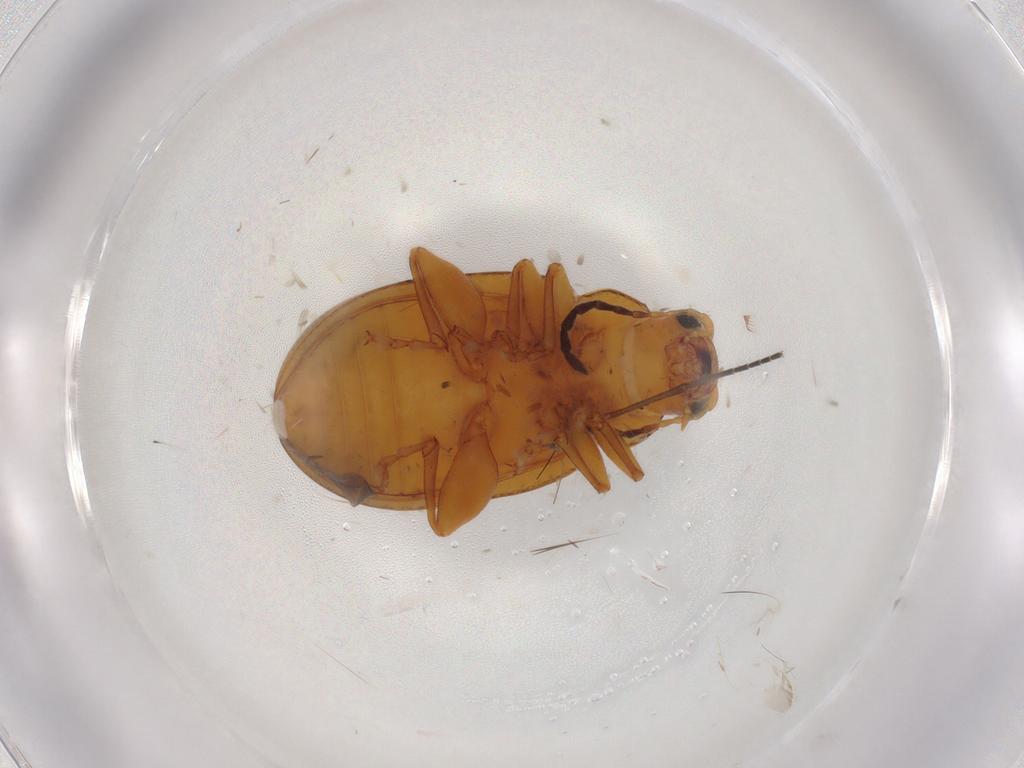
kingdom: Animalia
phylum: Arthropoda
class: Insecta
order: Coleoptera
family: Chrysomelidae
